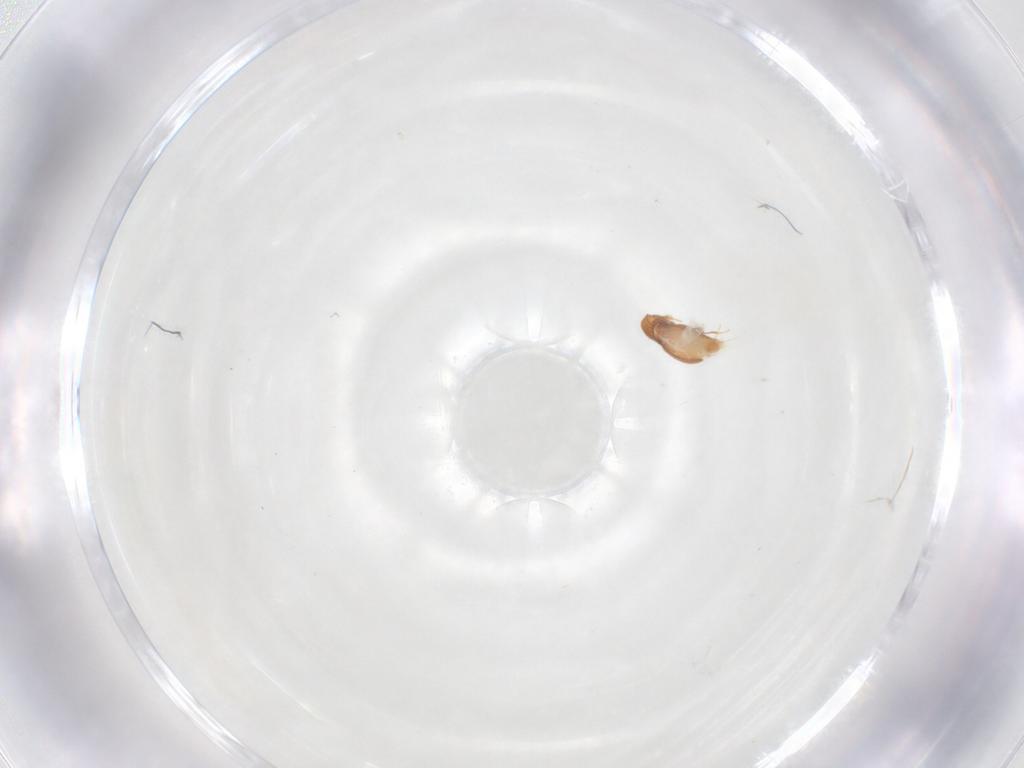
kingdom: Animalia
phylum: Arthropoda
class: Insecta
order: Coleoptera
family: Staphylinidae
